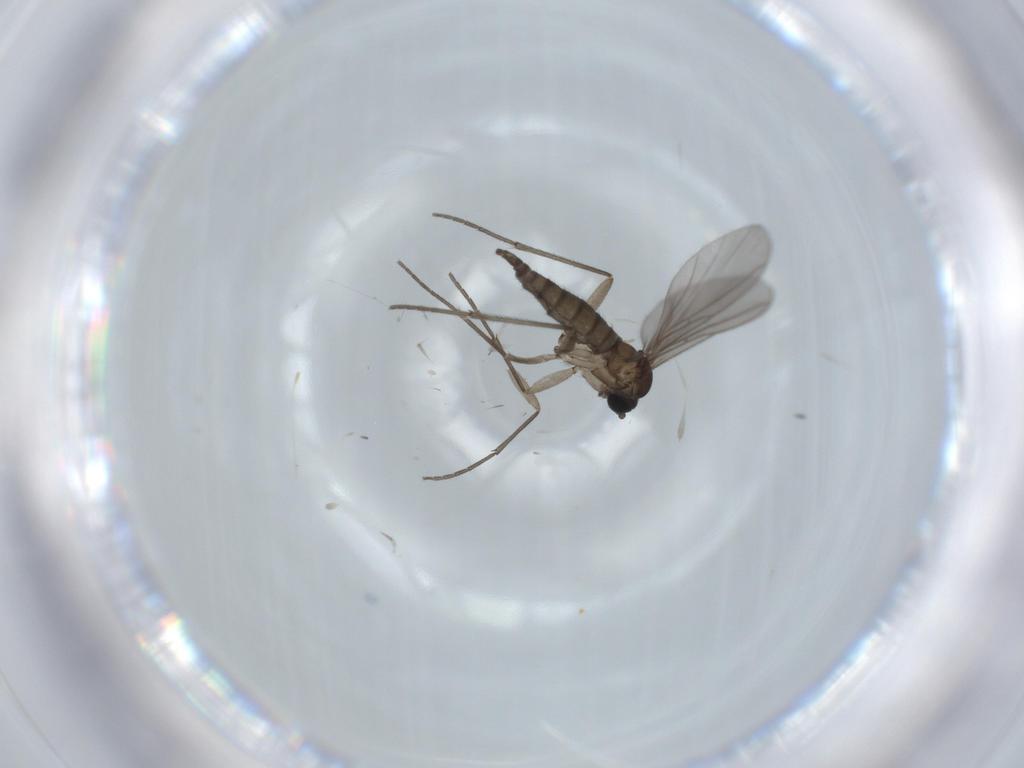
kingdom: Animalia
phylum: Arthropoda
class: Insecta
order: Diptera
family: Sciaridae
